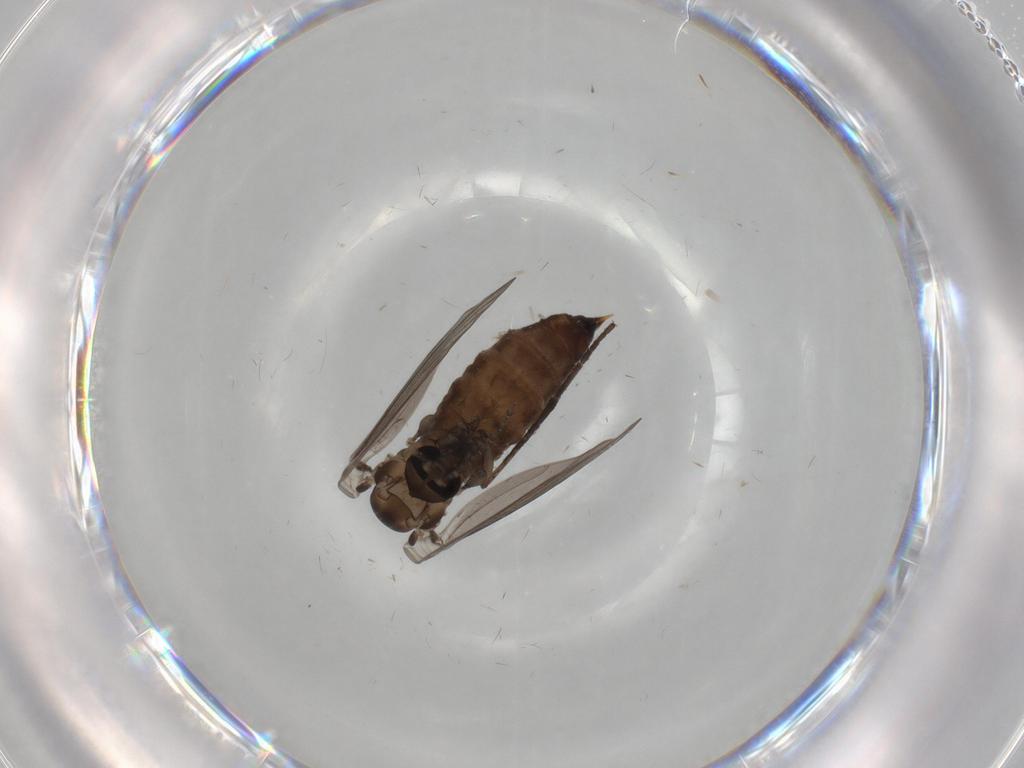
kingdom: Animalia
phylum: Arthropoda
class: Insecta
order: Diptera
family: Psychodidae
